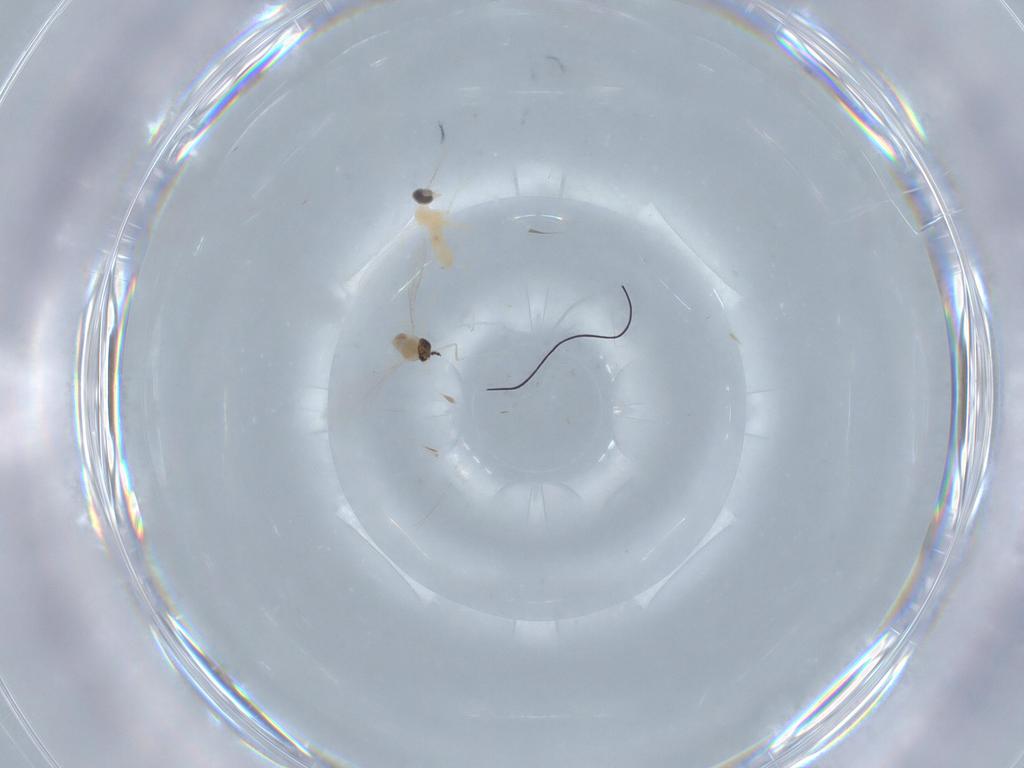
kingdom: Animalia
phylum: Arthropoda
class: Insecta
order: Diptera
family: Cecidomyiidae
